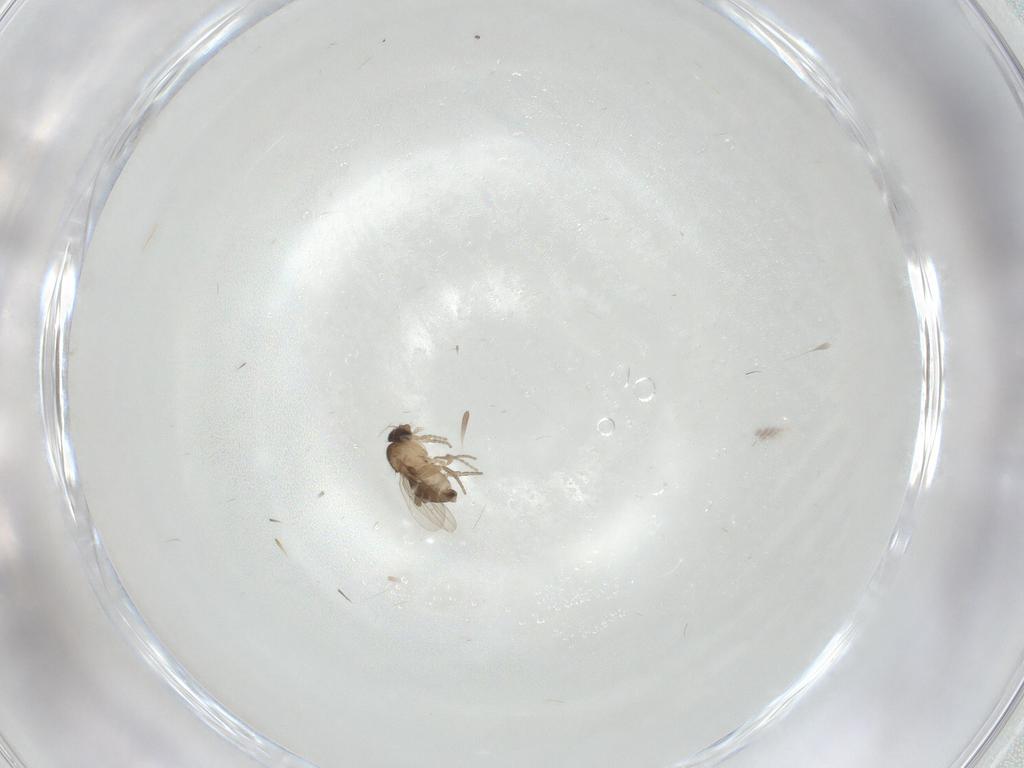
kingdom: Animalia
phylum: Arthropoda
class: Insecta
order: Diptera
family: Phoridae
